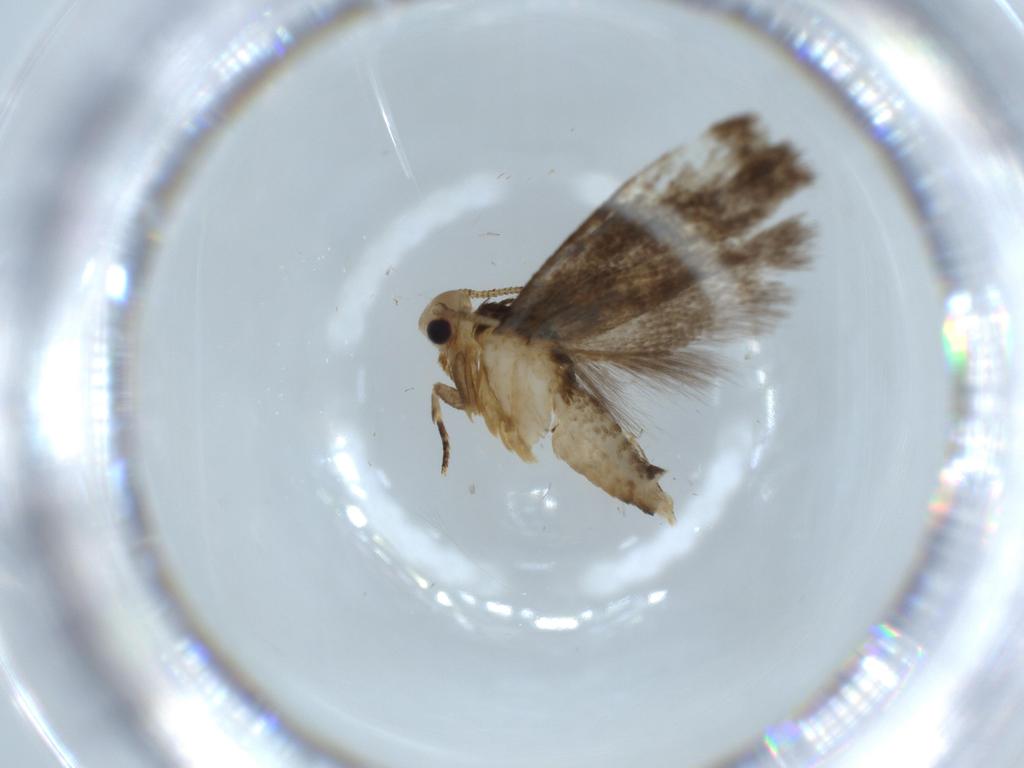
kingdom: Animalia
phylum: Arthropoda
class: Insecta
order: Lepidoptera
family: Tineidae
